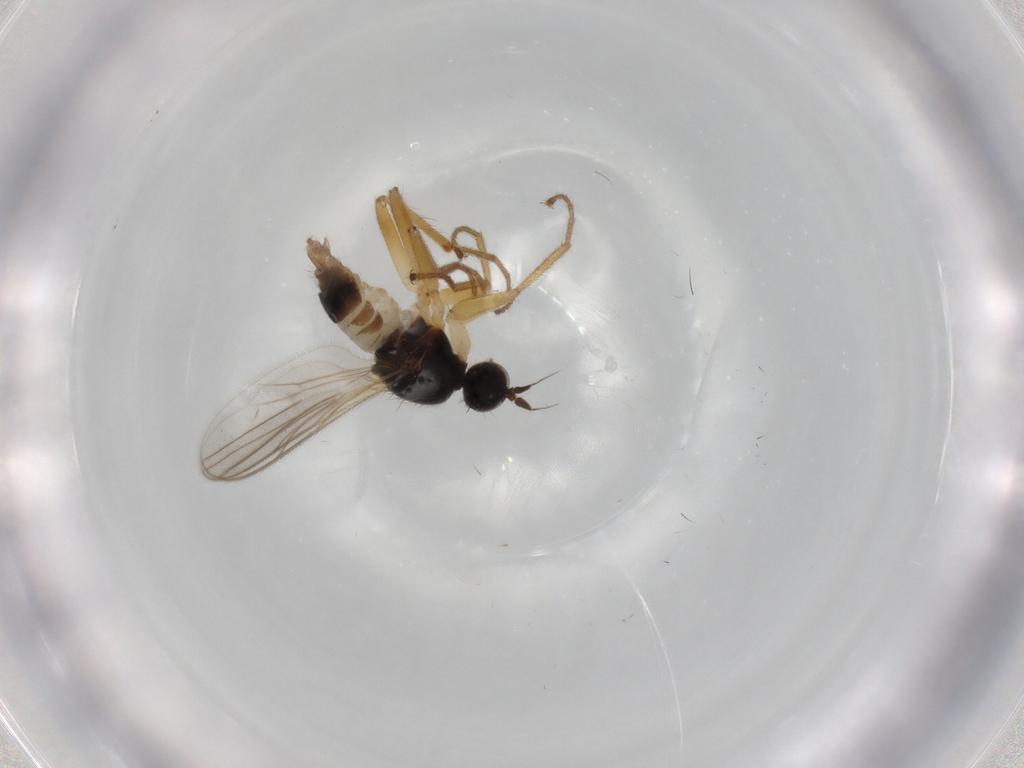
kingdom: Animalia
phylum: Arthropoda
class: Insecta
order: Diptera
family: Hybotidae
